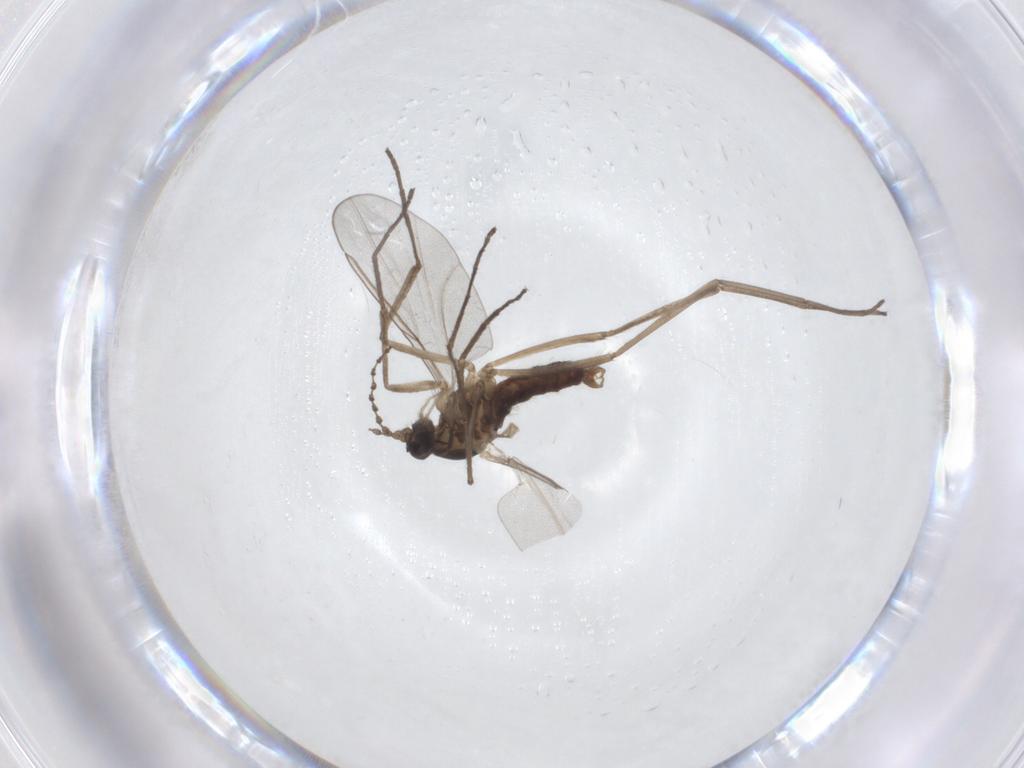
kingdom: Animalia
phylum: Arthropoda
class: Insecta
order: Diptera
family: Cecidomyiidae
